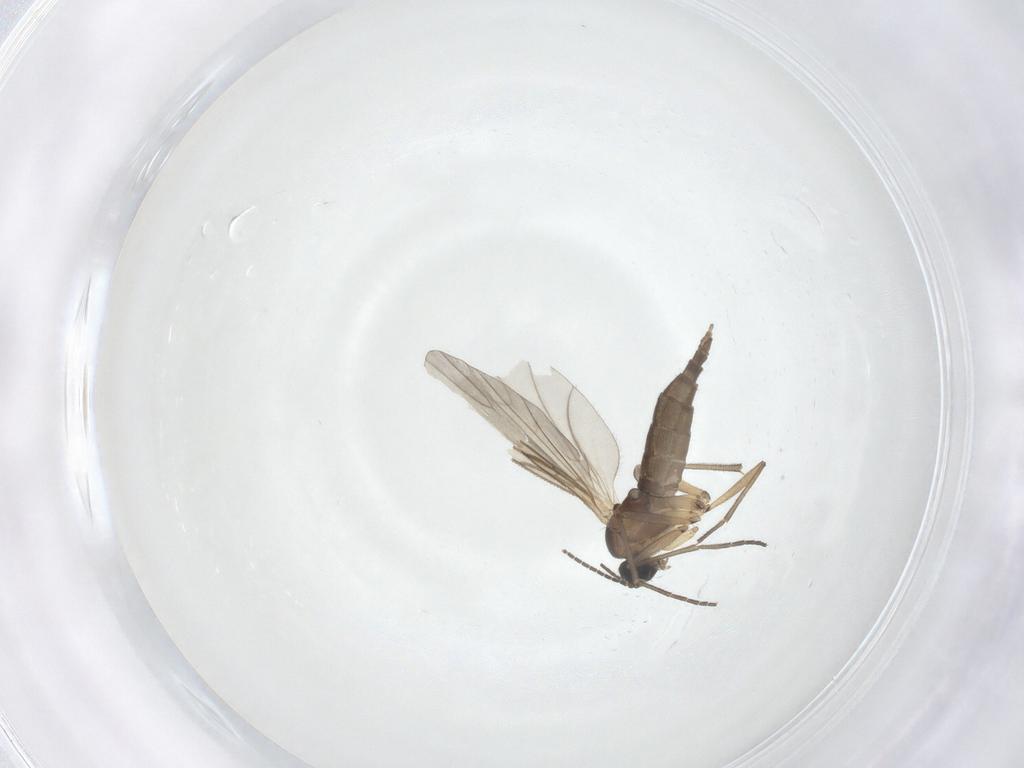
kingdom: Animalia
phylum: Arthropoda
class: Insecta
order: Diptera
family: Sciaridae
